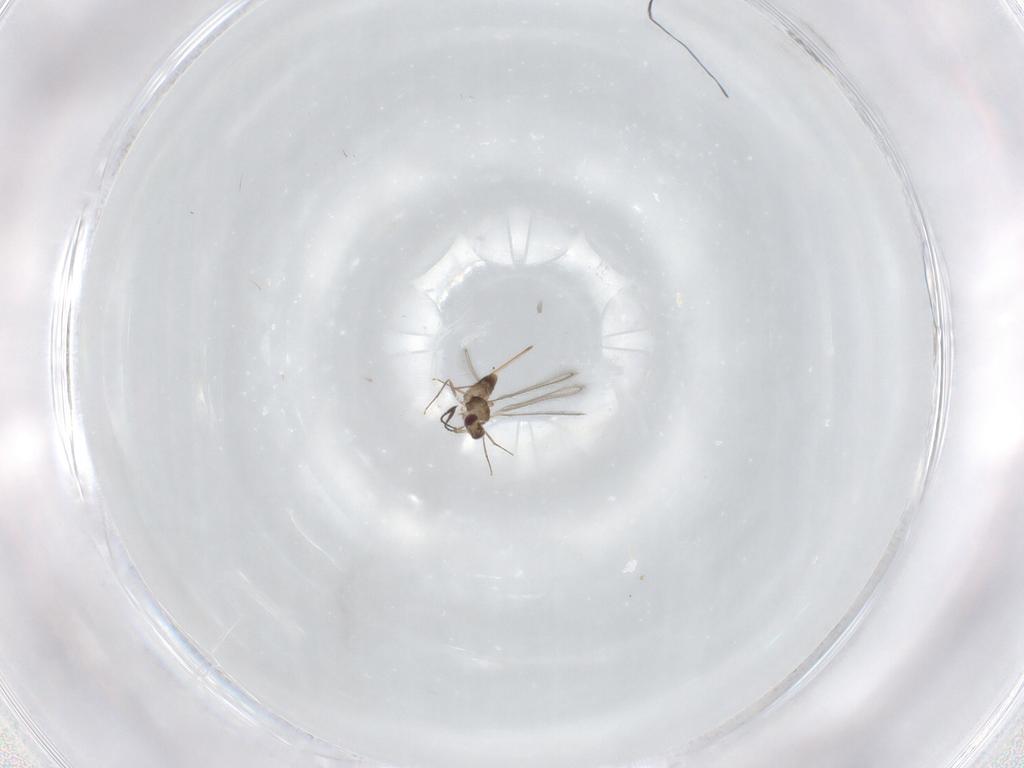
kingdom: Animalia
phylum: Arthropoda
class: Insecta
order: Diptera
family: Phoridae
